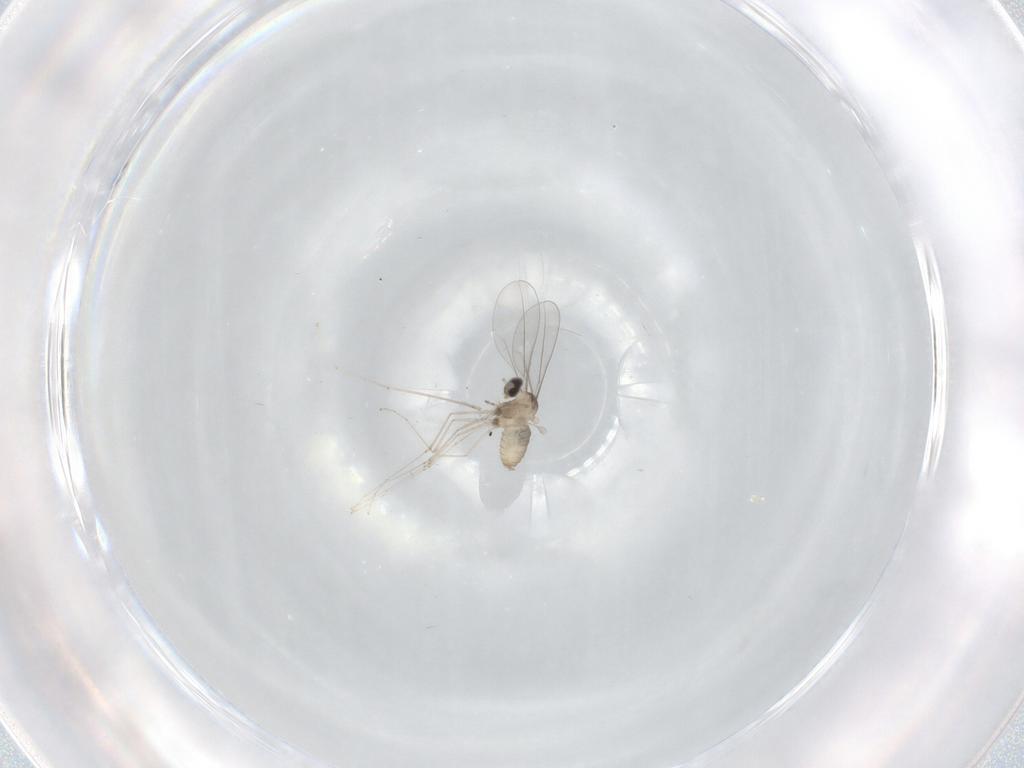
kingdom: Animalia
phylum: Arthropoda
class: Insecta
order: Diptera
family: Cecidomyiidae
